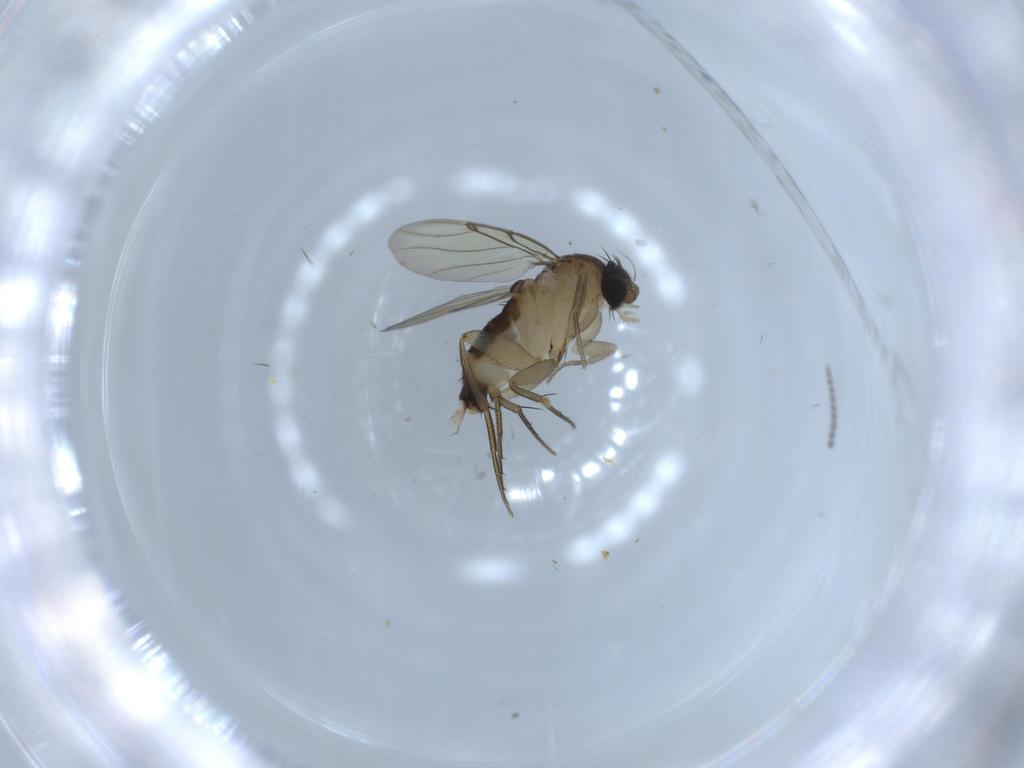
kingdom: Animalia
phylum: Arthropoda
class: Insecta
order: Diptera
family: Sciaridae
